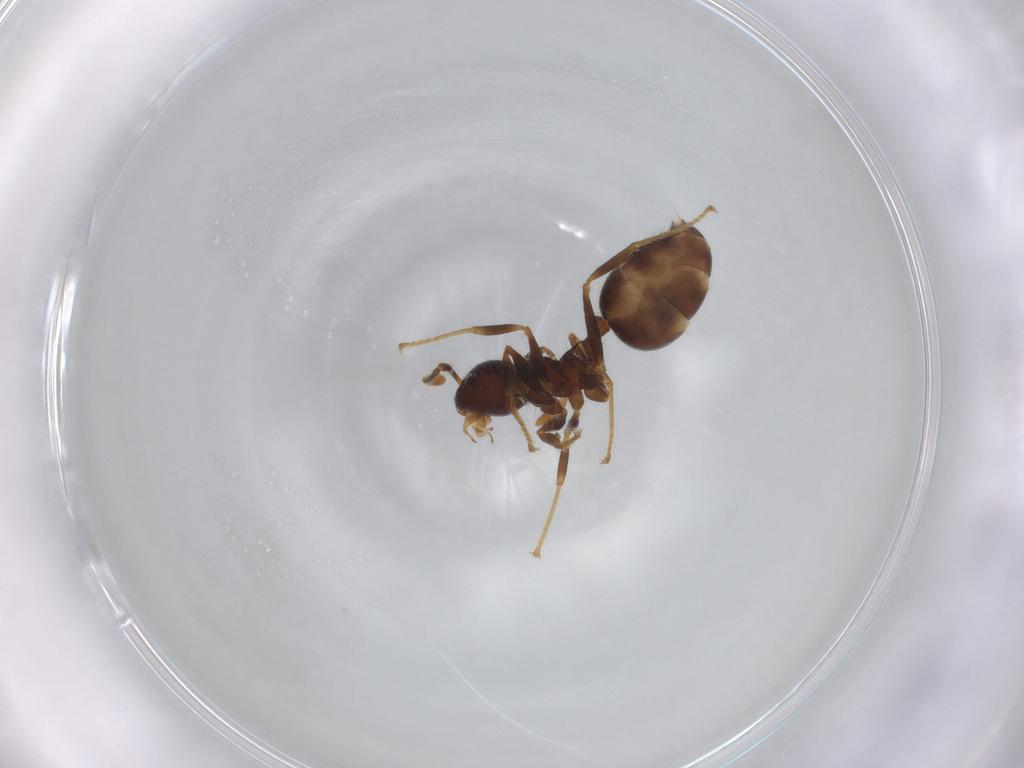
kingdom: Animalia
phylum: Arthropoda
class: Insecta
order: Hymenoptera
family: Formicidae
